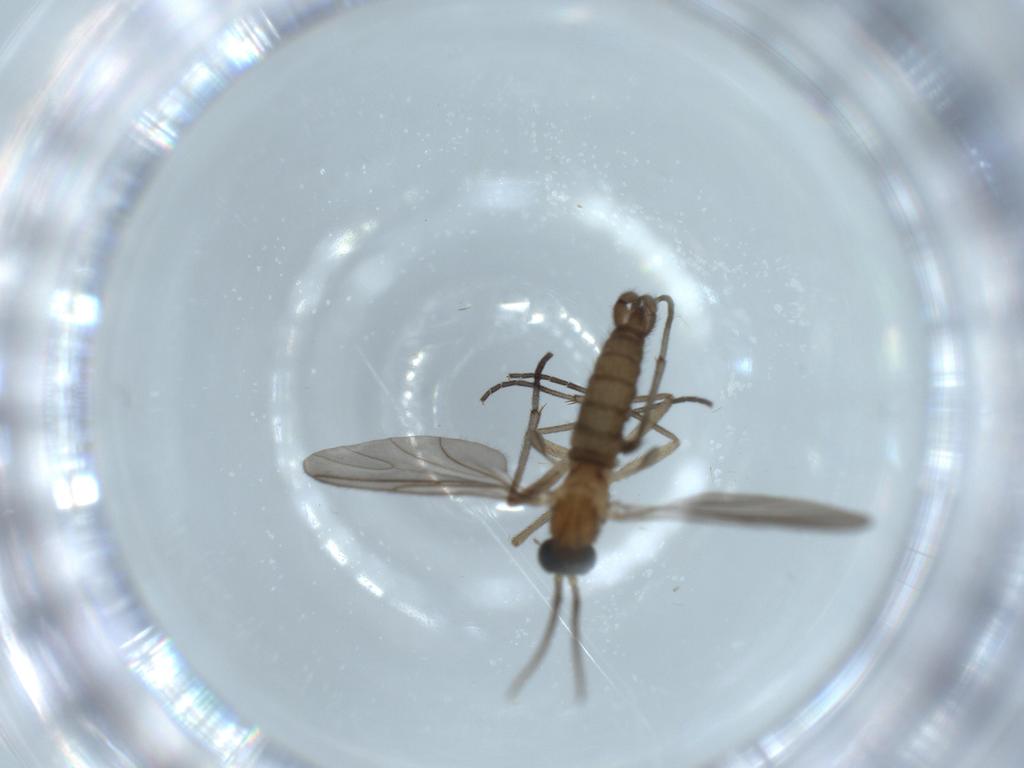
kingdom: Animalia
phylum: Arthropoda
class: Insecta
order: Diptera
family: Sciaridae
